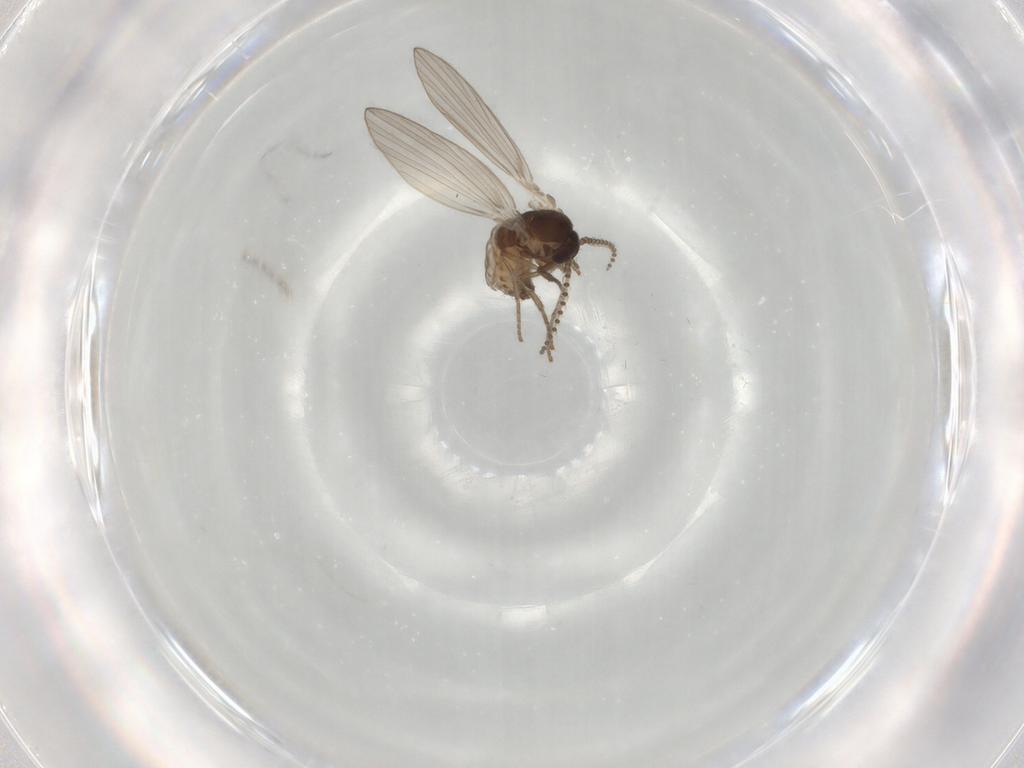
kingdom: Animalia
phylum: Arthropoda
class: Insecta
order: Diptera
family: Psychodidae
